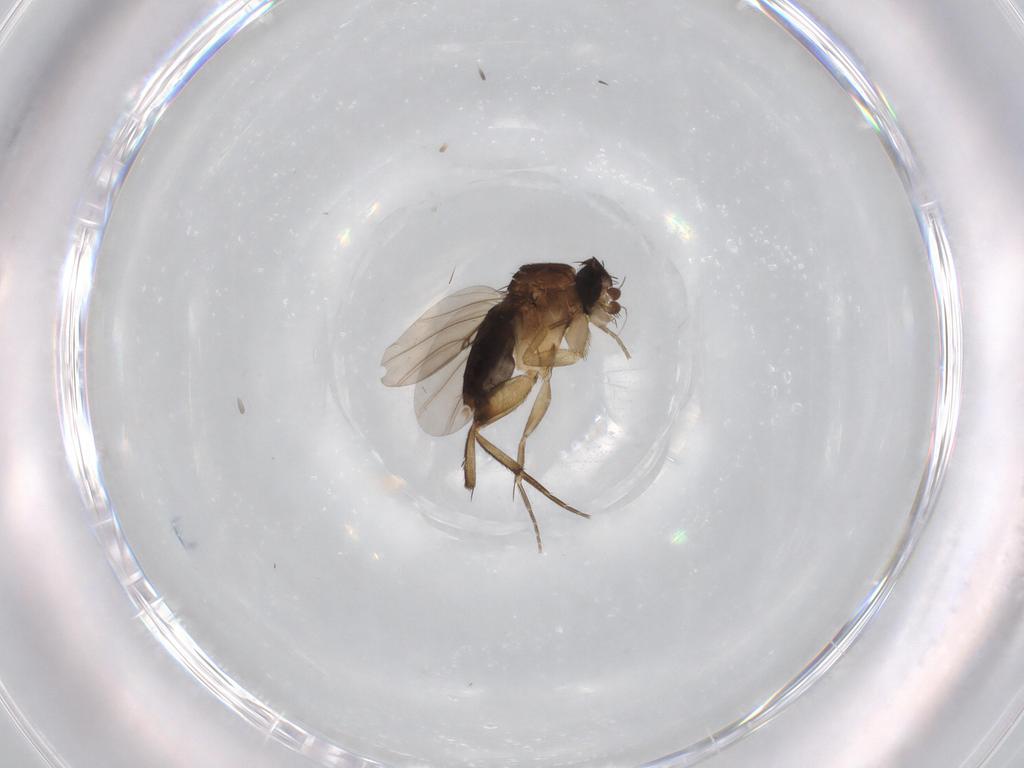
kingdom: Animalia
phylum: Arthropoda
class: Insecta
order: Diptera
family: Phoridae
